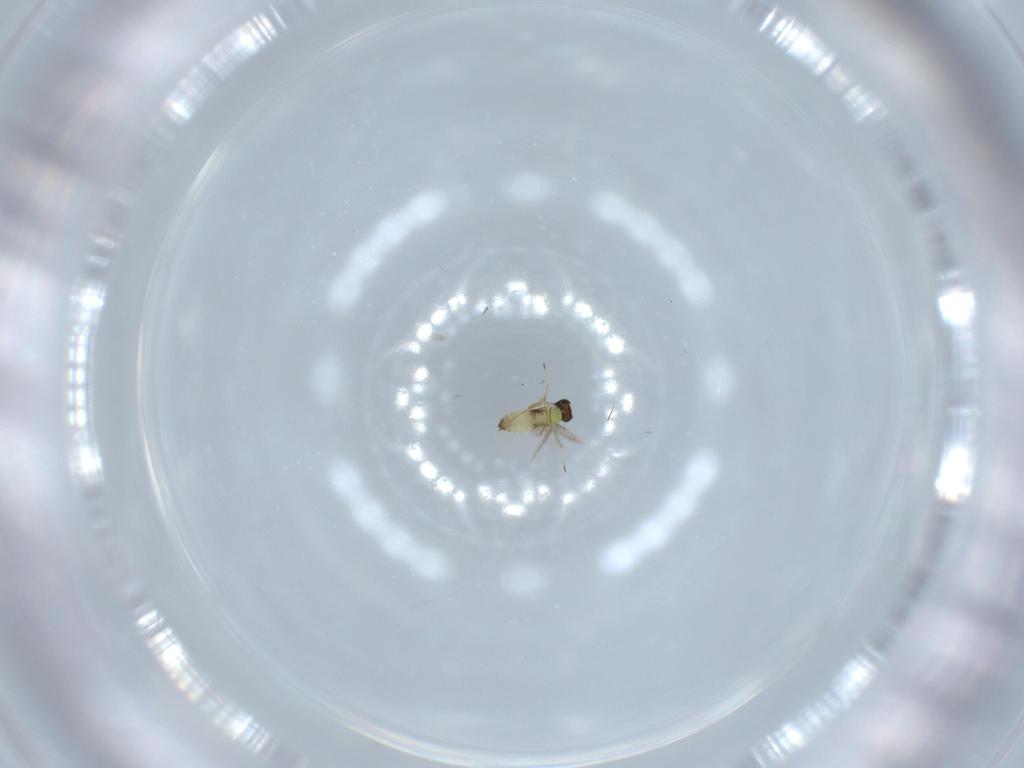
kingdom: Animalia
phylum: Arthropoda
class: Insecta
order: Hymenoptera
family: Trichogrammatidae
